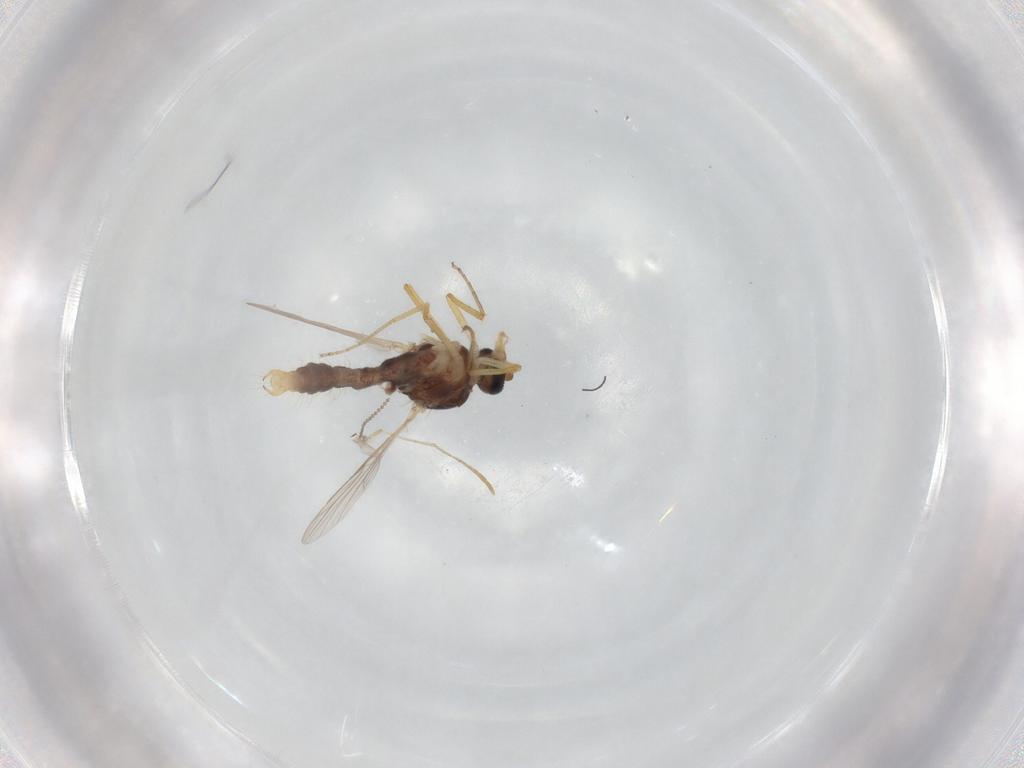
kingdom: Animalia
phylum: Arthropoda
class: Insecta
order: Diptera
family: Ceratopogonidae
